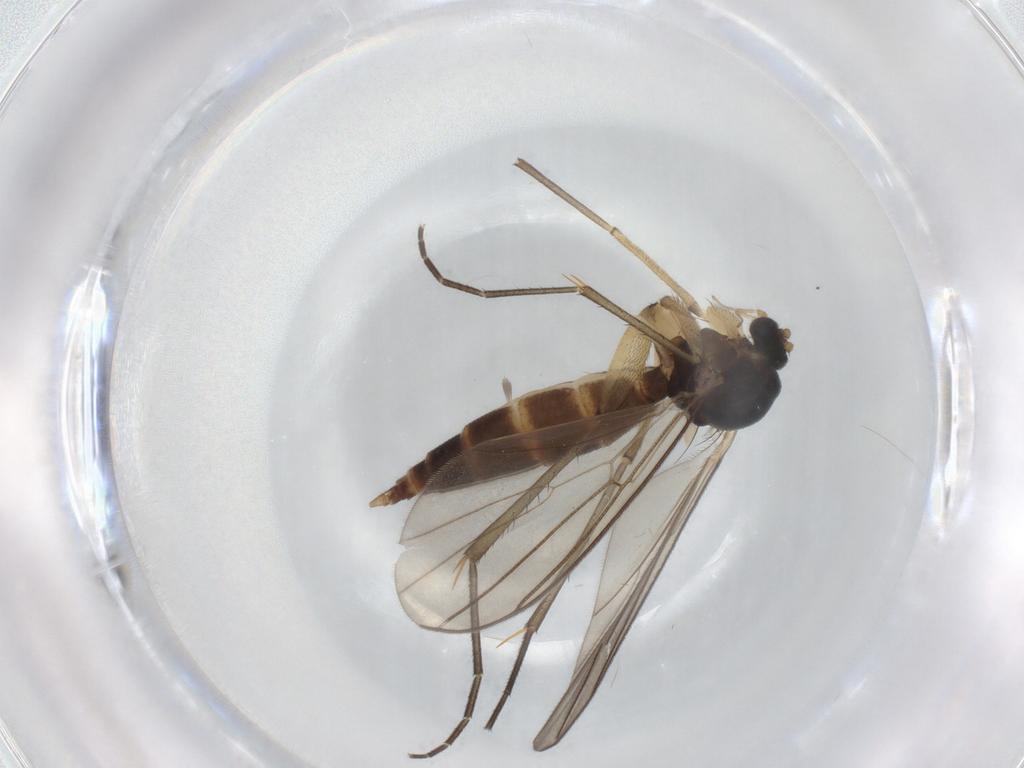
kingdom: Animalia
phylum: Arthropoda
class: Insecta
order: Diptera
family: Mycetophilidae
